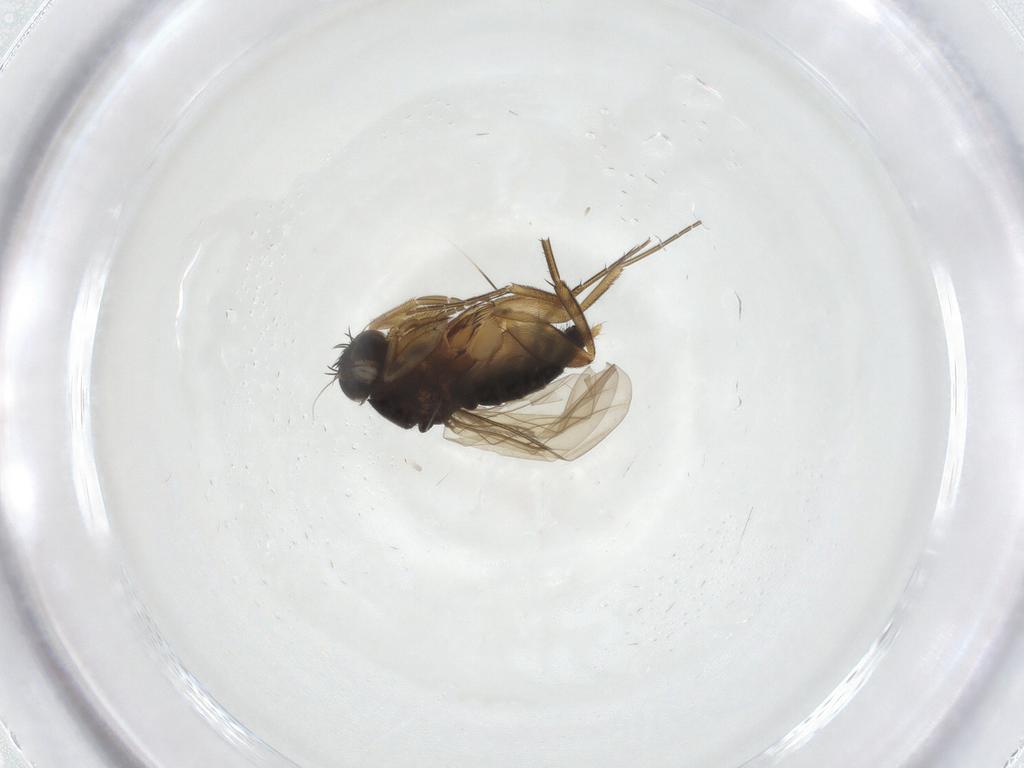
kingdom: Animalia
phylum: Arthropoda
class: Insecta
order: Diptera
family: Phoridae
